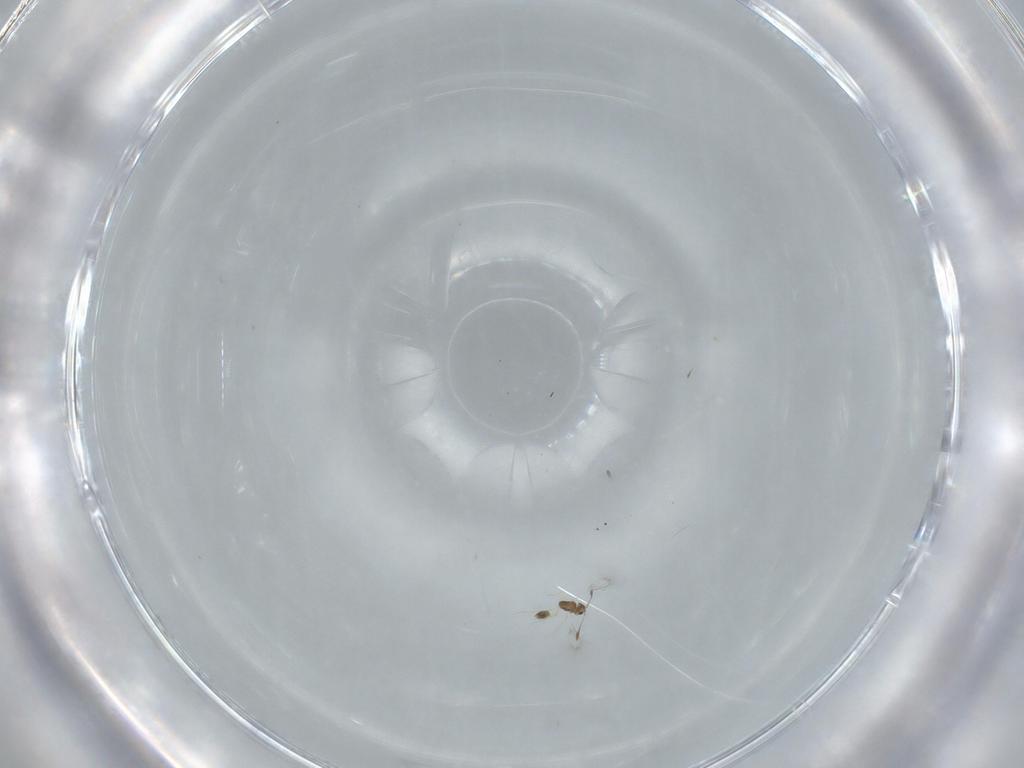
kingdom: Animalia
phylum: Arthropoda
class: Insecta
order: Hymenoptera
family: Mymarommatidae
